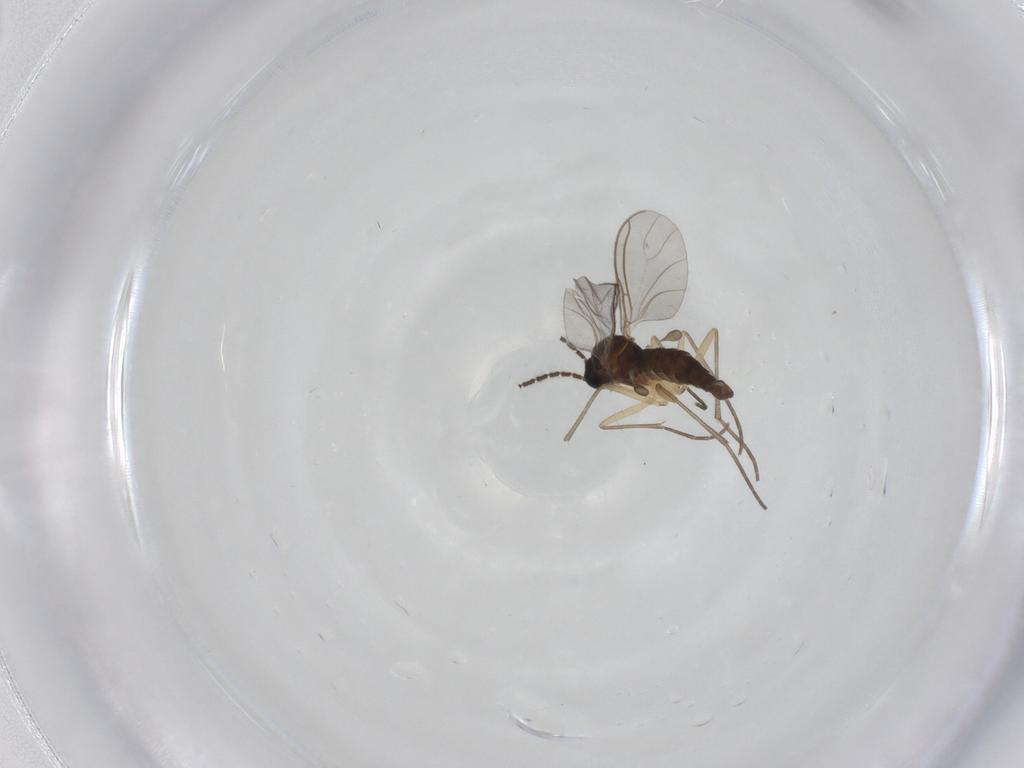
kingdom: Animalia
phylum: Arthropoda
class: Insecta
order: Diptera
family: Sciaridae
